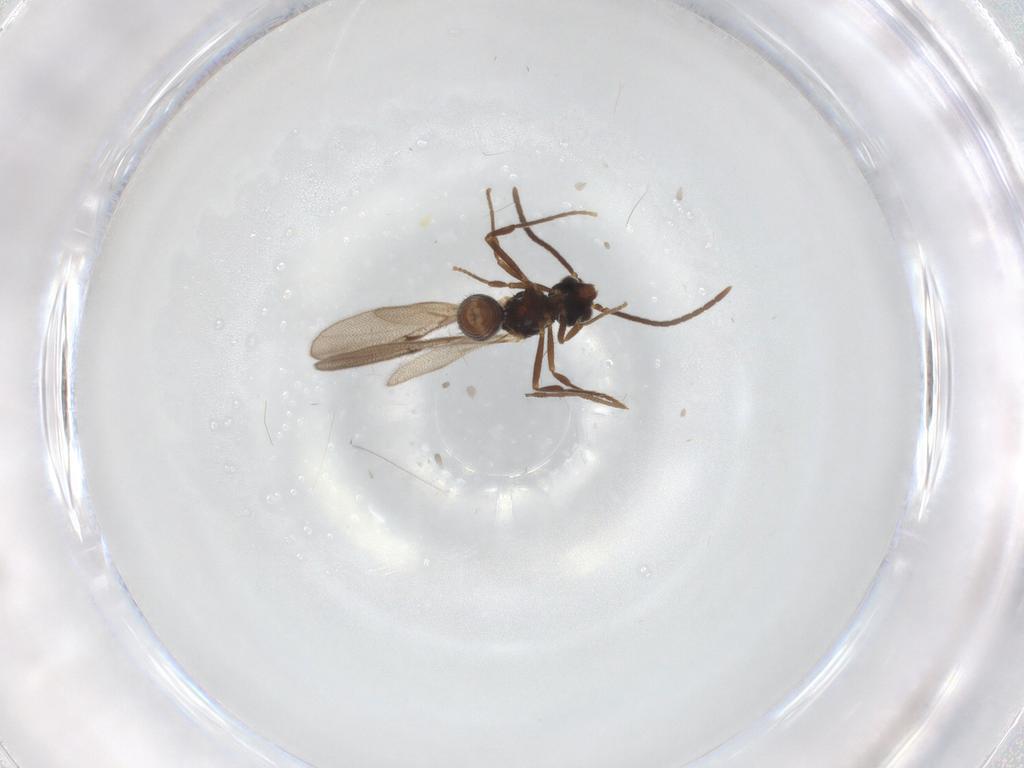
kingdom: Animalia
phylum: Arthropoda
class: Insecta
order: Hymenoptera
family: Formicidae
